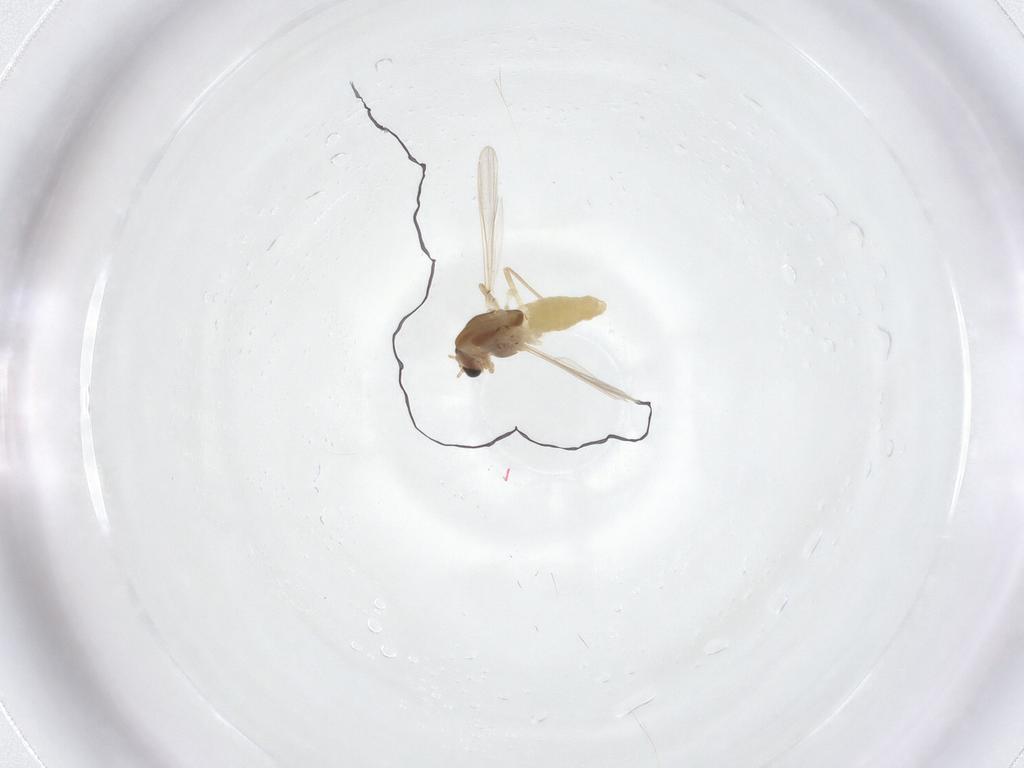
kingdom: Animalia
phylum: Arthropoda
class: Insecta
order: Diptera
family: Chironomidae
